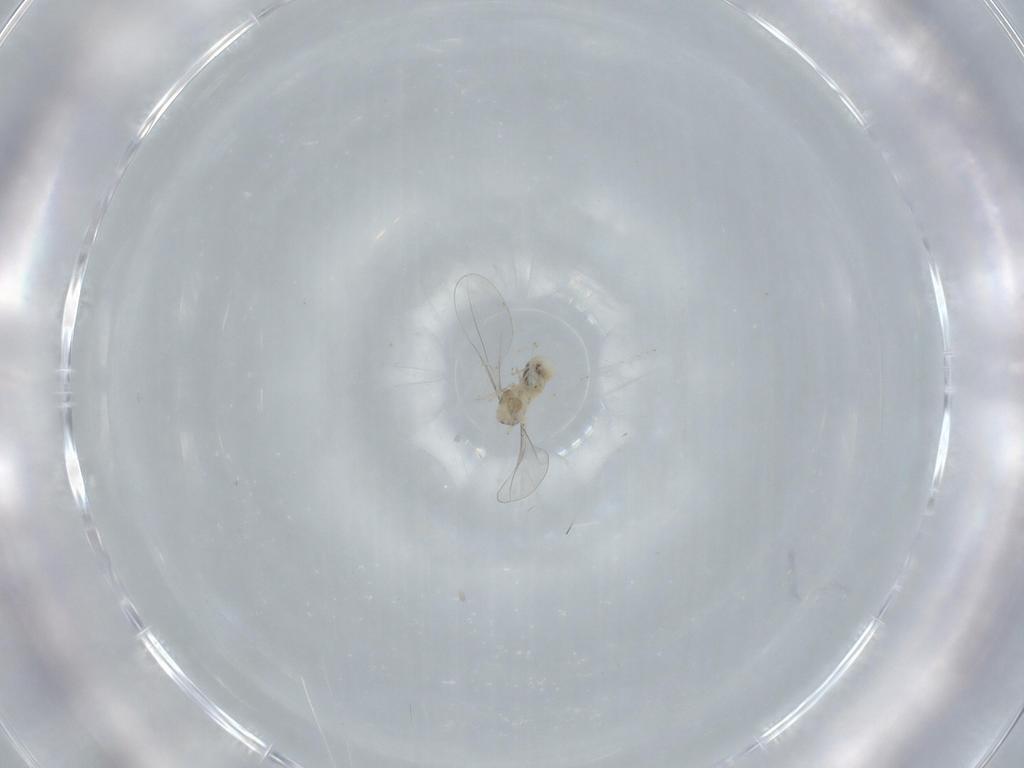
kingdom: Animalia
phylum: Arthropoda
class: Insecta
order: Diptera
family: Cecidomyiidae
